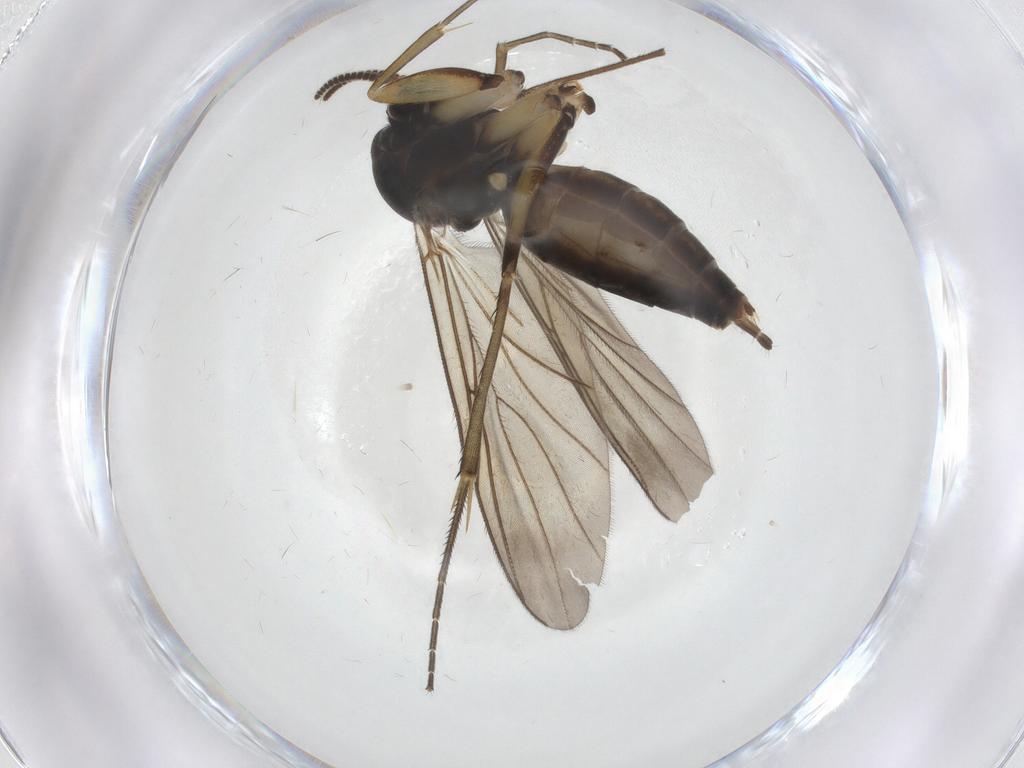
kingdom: Animalia
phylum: Arthropoda
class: Insecta
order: Diptera
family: Mycetophilidae
